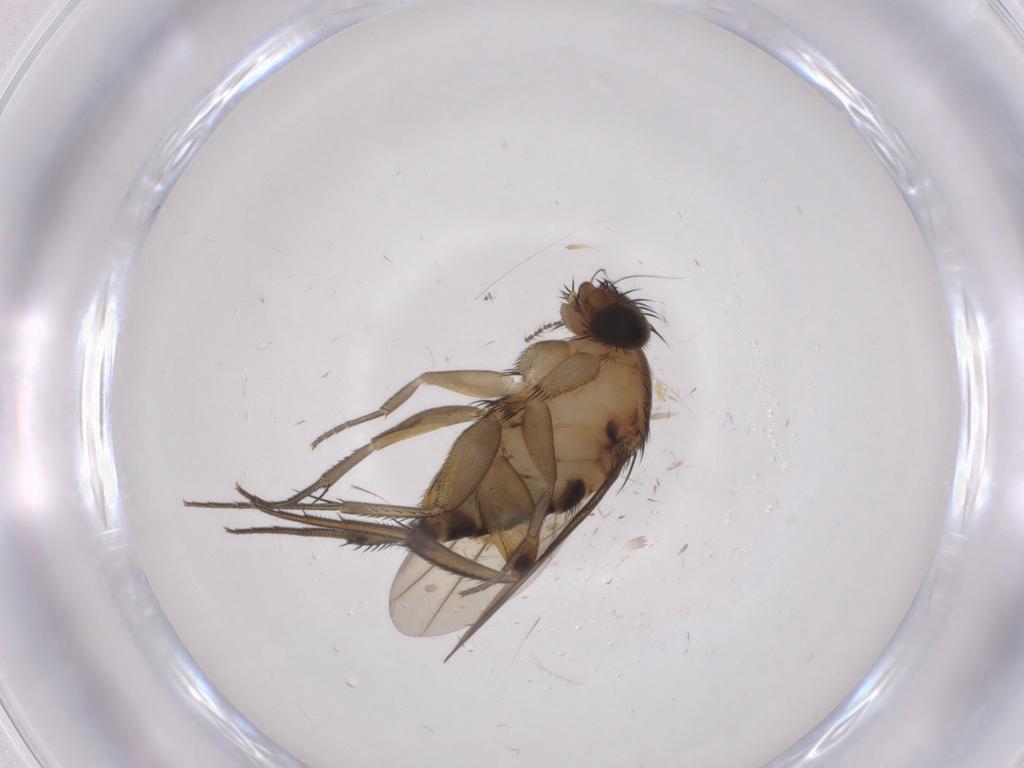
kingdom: Animalia
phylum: Arthropoda
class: Insecta
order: Diptera
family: Phoridae
